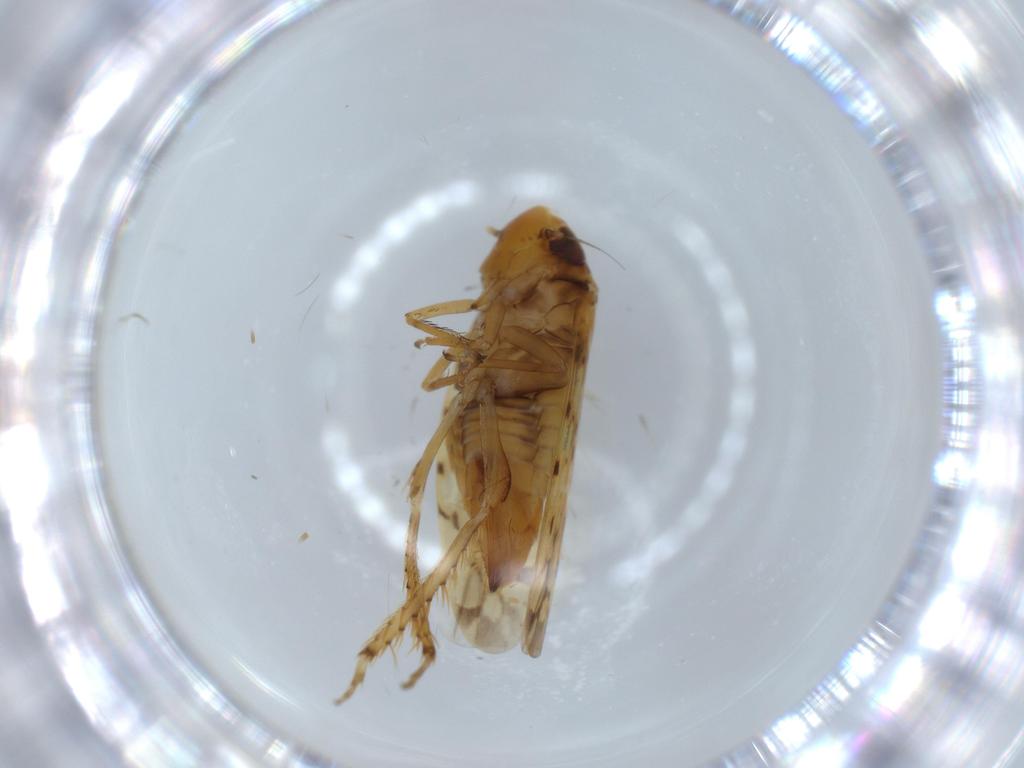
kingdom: Animalia
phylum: Arthropoda
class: Insecta
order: Hemiptera
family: Cicadellidae
